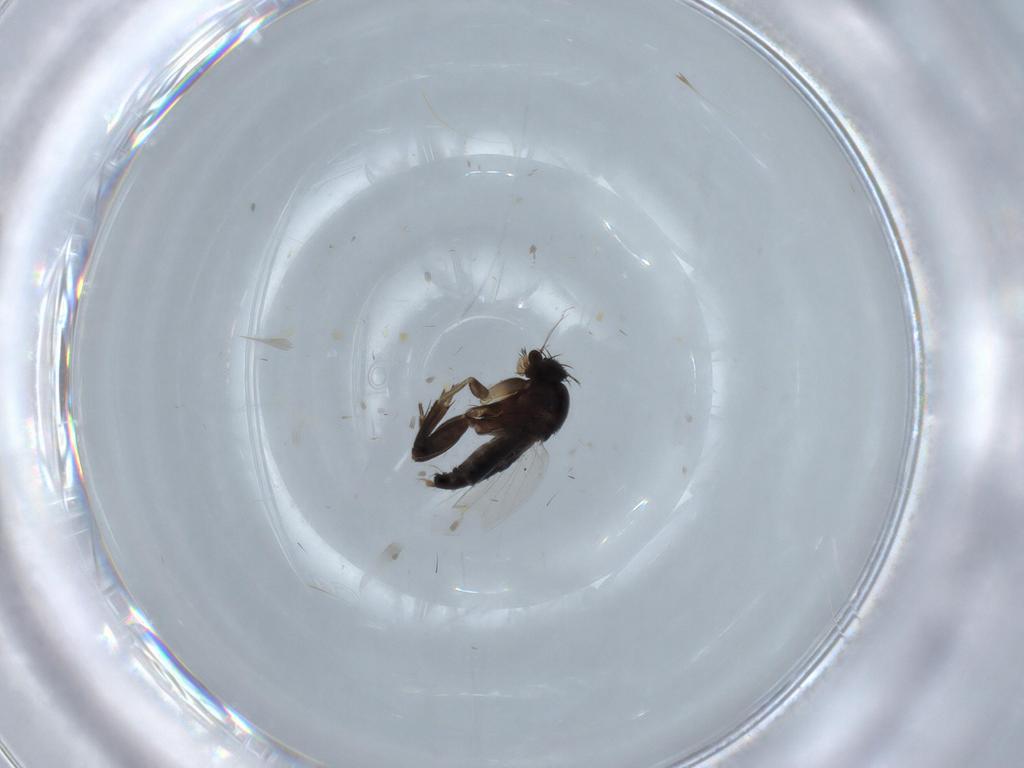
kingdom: Animalia
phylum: Arthropoda
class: Insecta
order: Diptera
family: Phoridae
